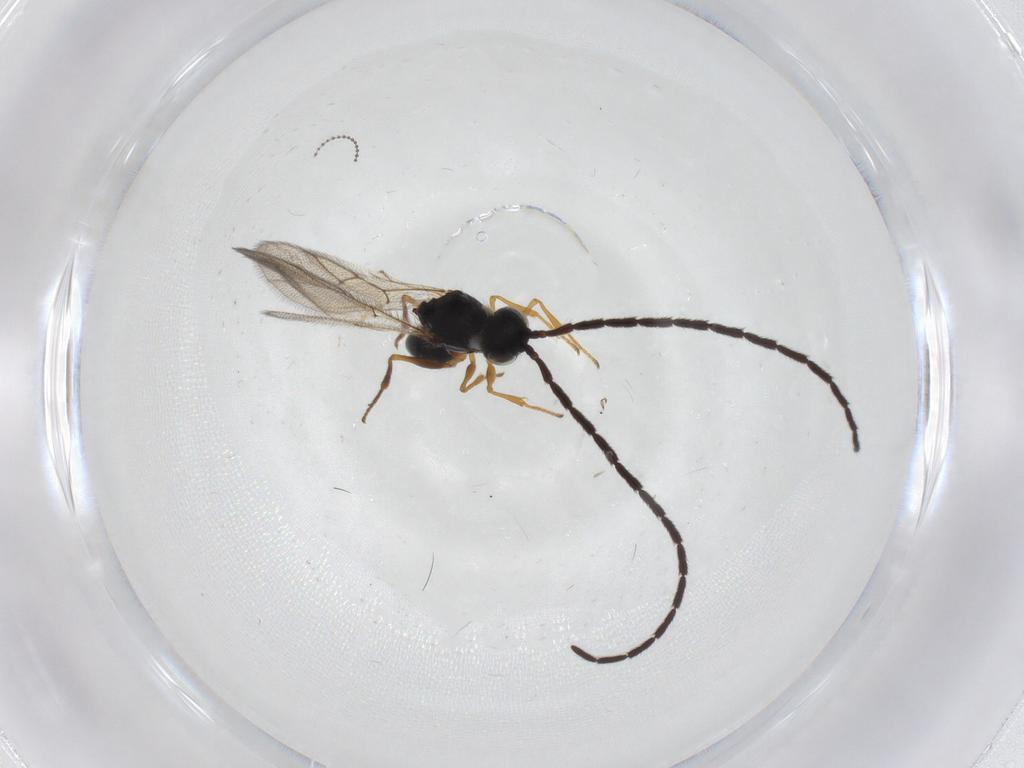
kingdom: Animalia
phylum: Arthropoda
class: Insecta
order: Hymenoptera
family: Figitidae
